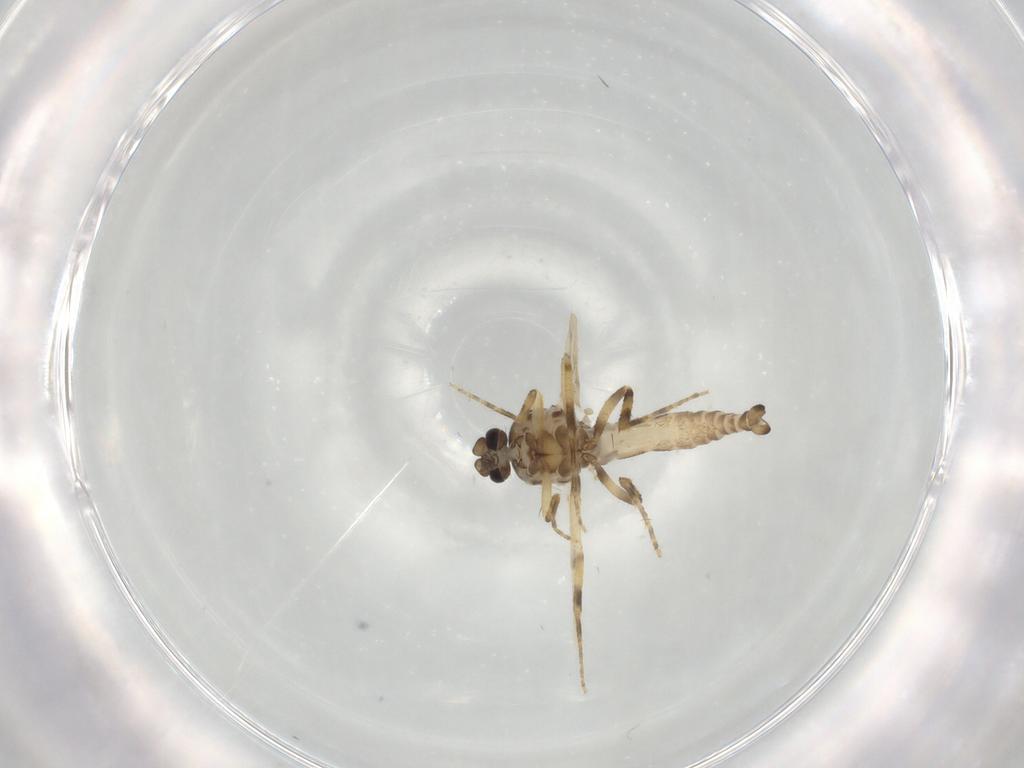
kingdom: Animalia
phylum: Arthropoda
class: Insecta
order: Diptera
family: Ceratopogonidae
